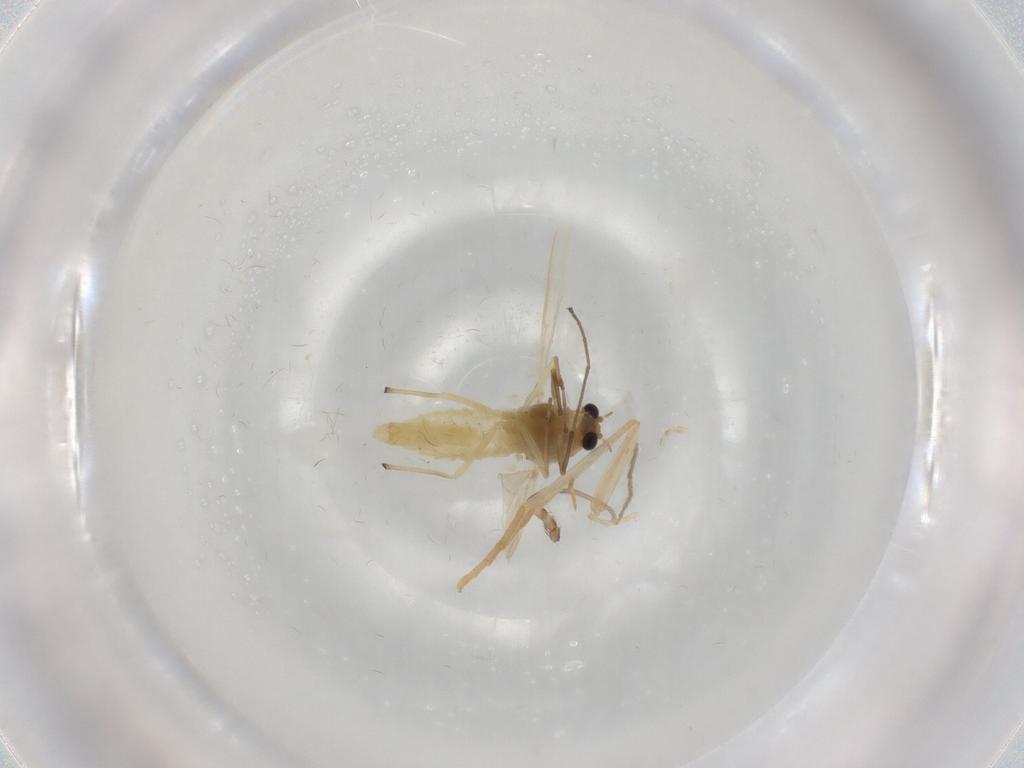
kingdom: Animalia
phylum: Arthropoda
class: Insecta
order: Diptera
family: Chironomidae
